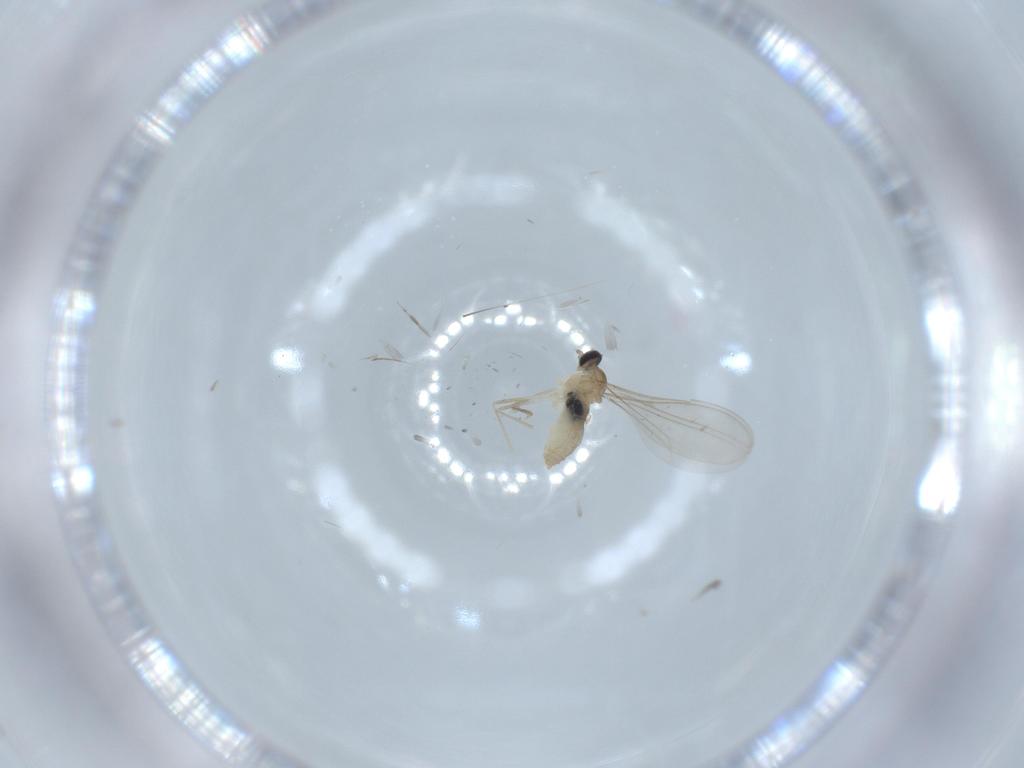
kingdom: Animalia
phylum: Arthropoda
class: Insecta
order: Diptera
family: Cecidomyiidae
